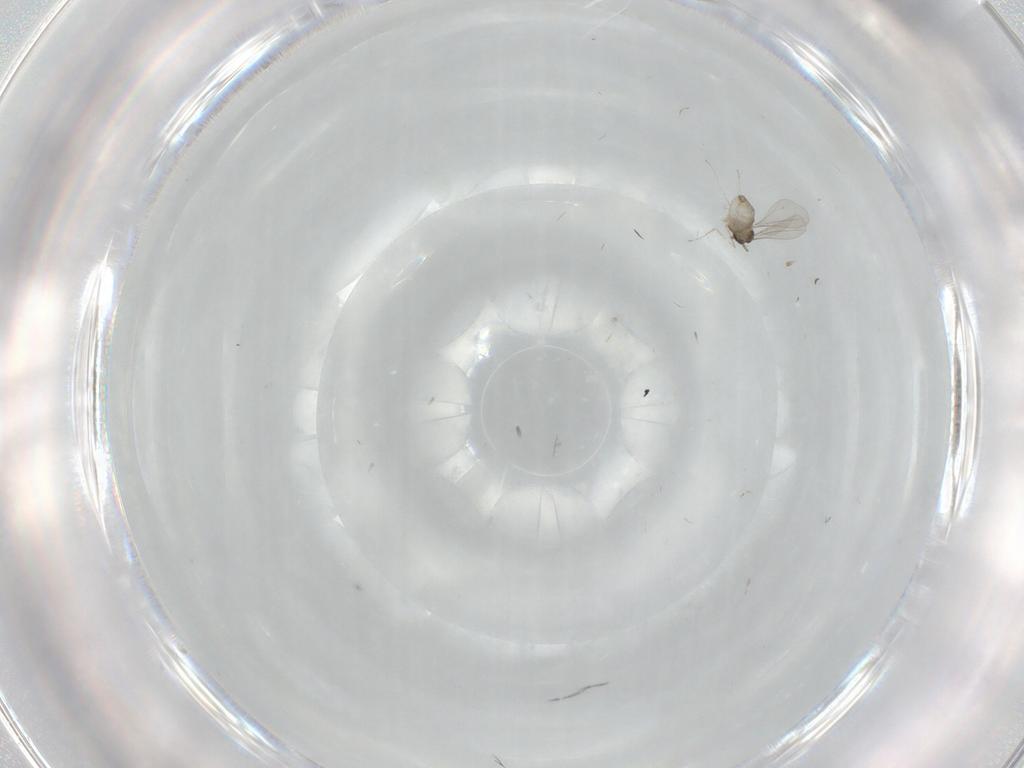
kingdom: Animalia
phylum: Arthropoda
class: Insecta
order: Diptera
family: Cecidomyiidae
